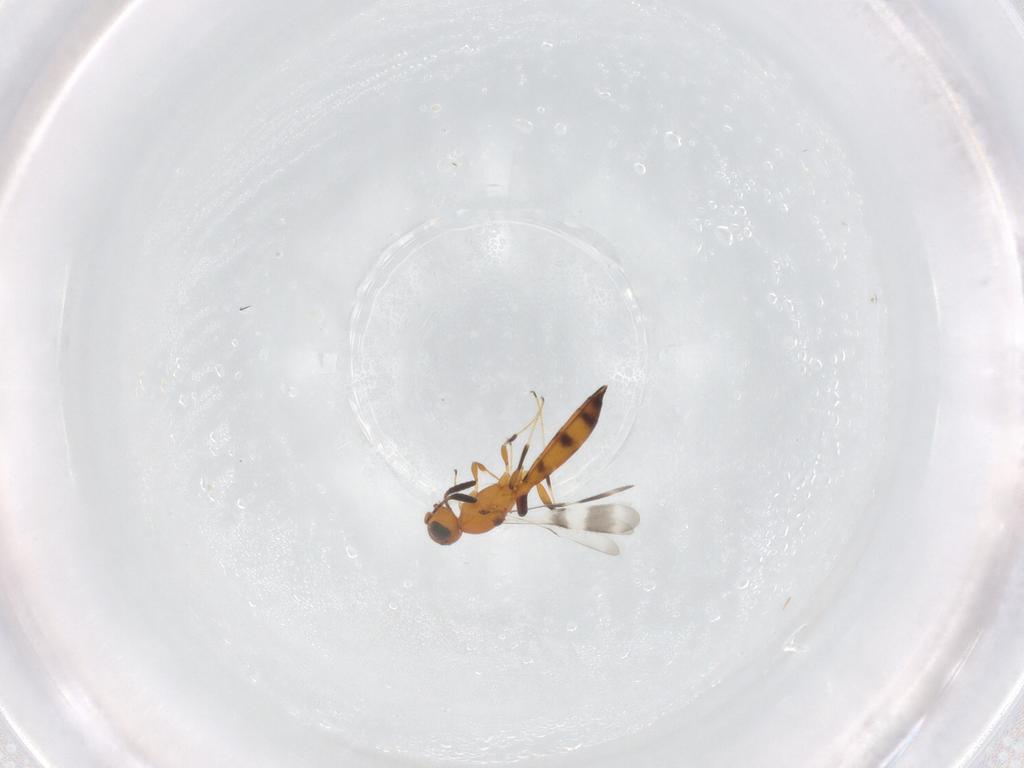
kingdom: Animalia
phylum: Arthropoda
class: Insecta
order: Hymenoptera
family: Scelionidae
